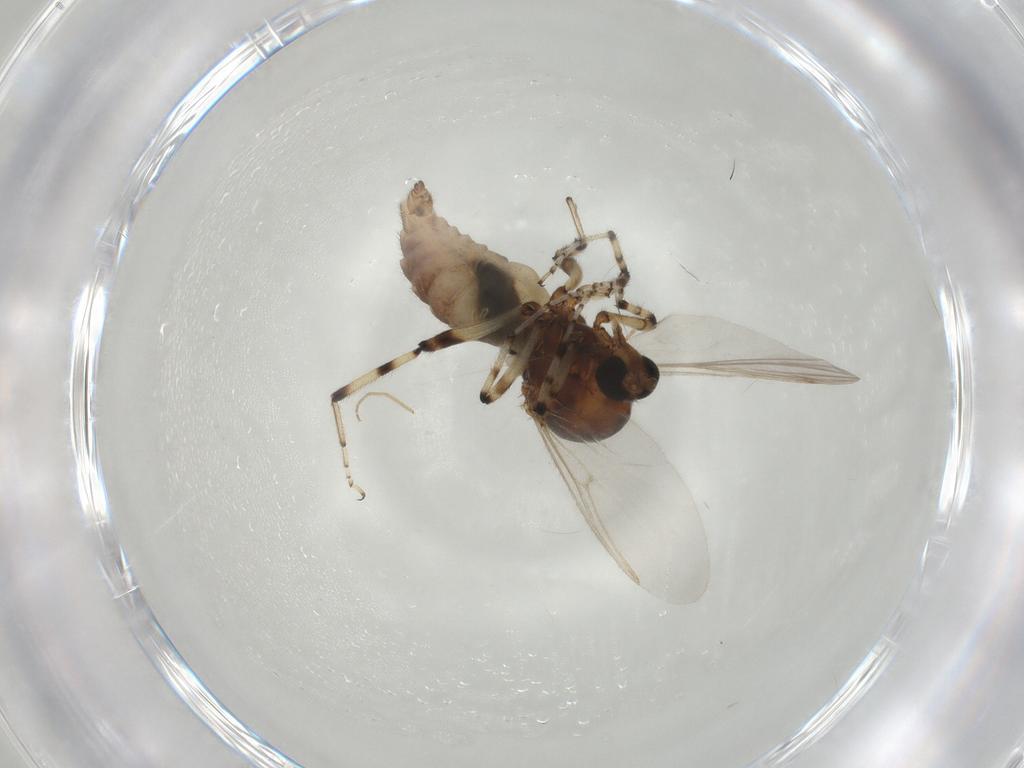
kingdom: Animalia
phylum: Arthropoda
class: Insecta
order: Diptera
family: Ceratopogonidae
